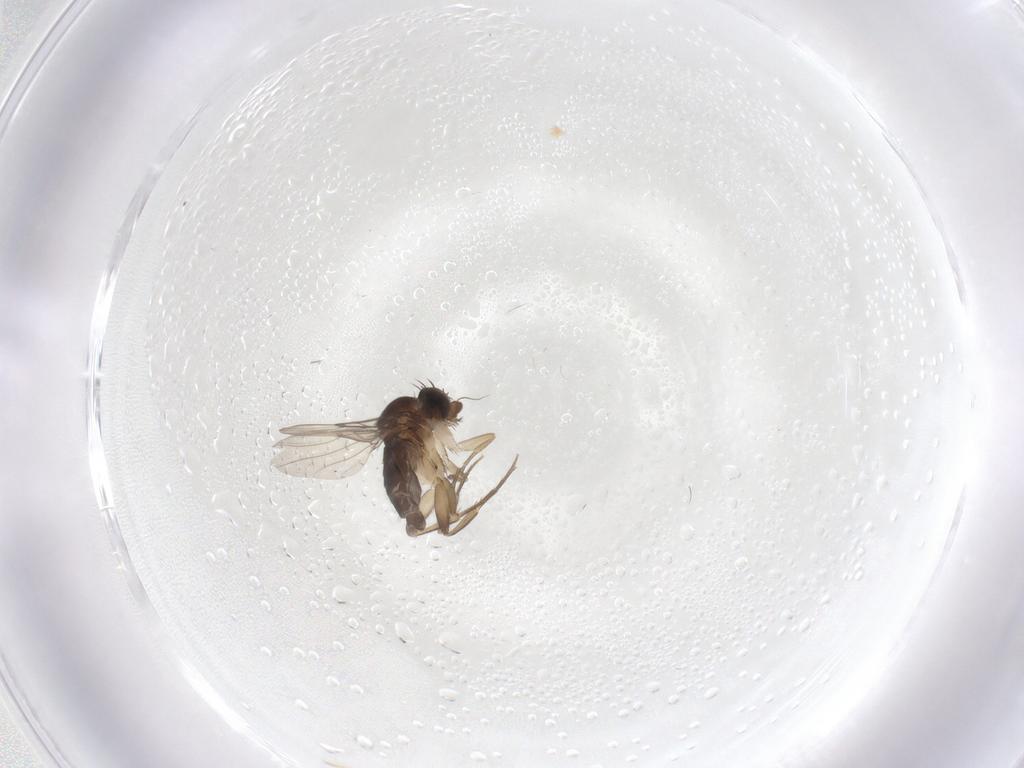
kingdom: Animalia
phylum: Arthropoda
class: Insecta
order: Diptera
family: Phoridae
